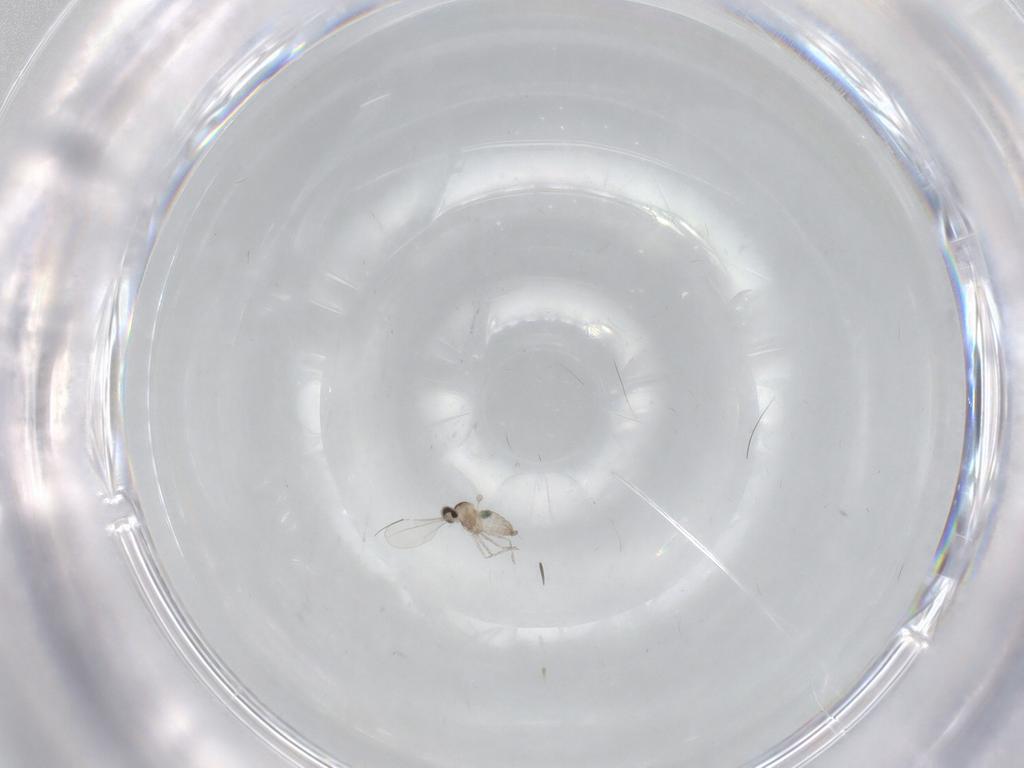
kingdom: Animalia
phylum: Arthropoda
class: Insecta
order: Diptera
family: Cecidomyiidae
